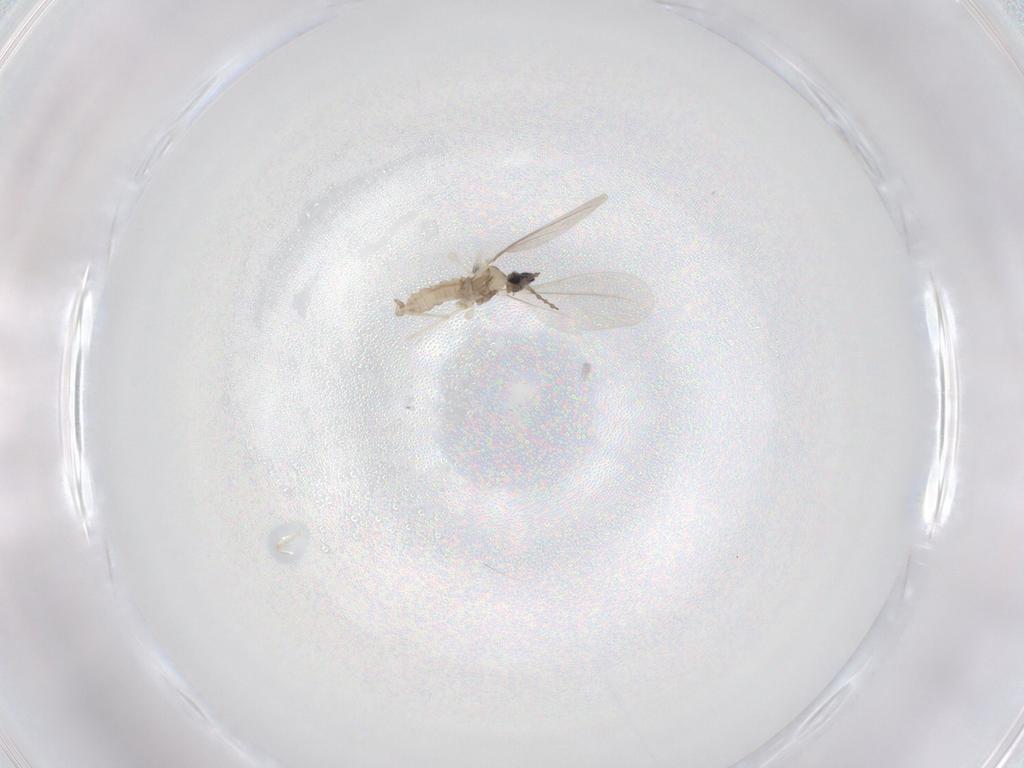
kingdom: Animalia
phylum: Arthropoda
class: Insecta
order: Diptera
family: Cecidomyiidae
